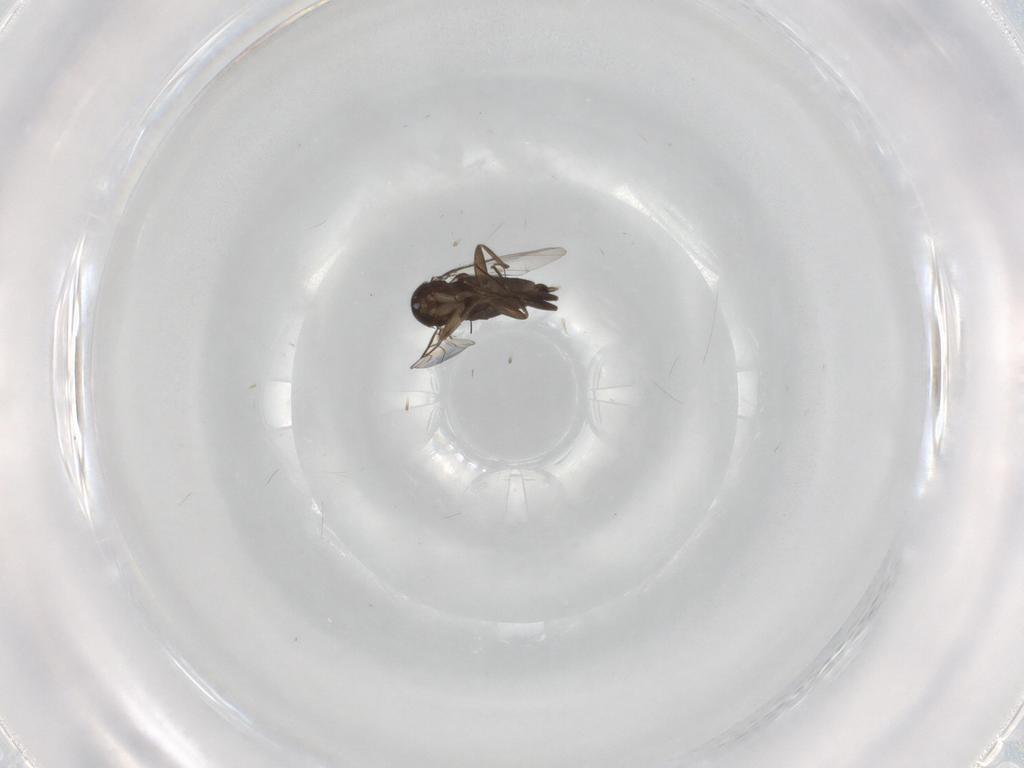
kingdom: Animalia
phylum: Arthropoda
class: Insecta
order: Diptera
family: Phoridae
